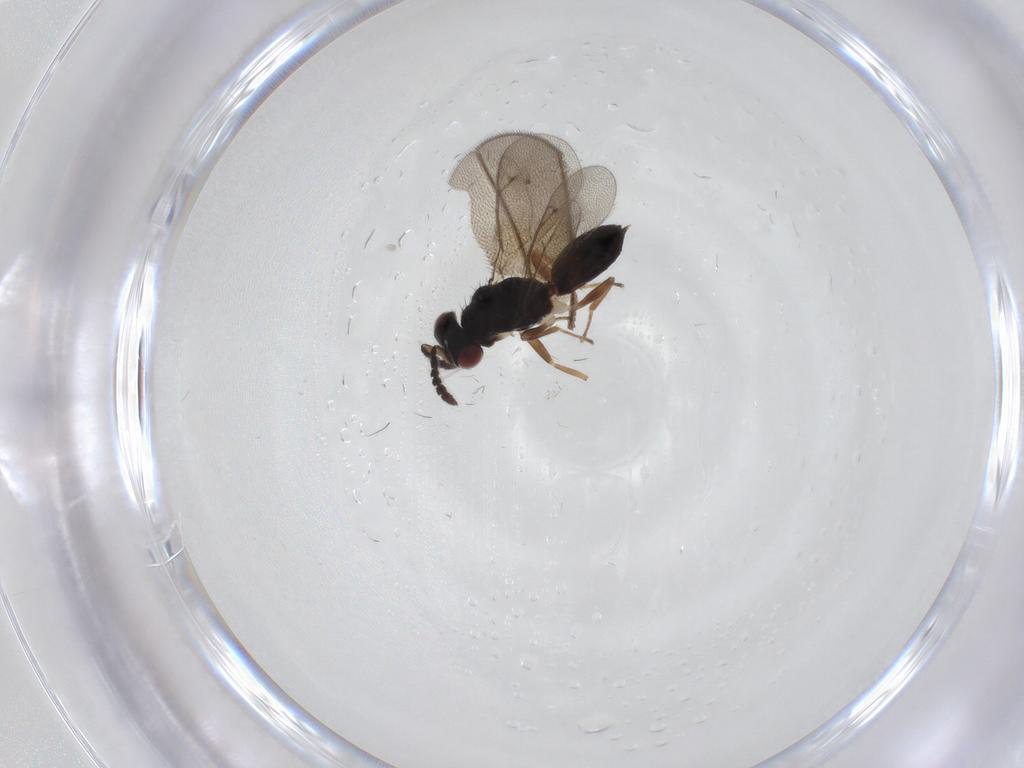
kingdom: Animalia
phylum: Arthropoda
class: Insecta
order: Hymenoptera
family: Eulophidae
